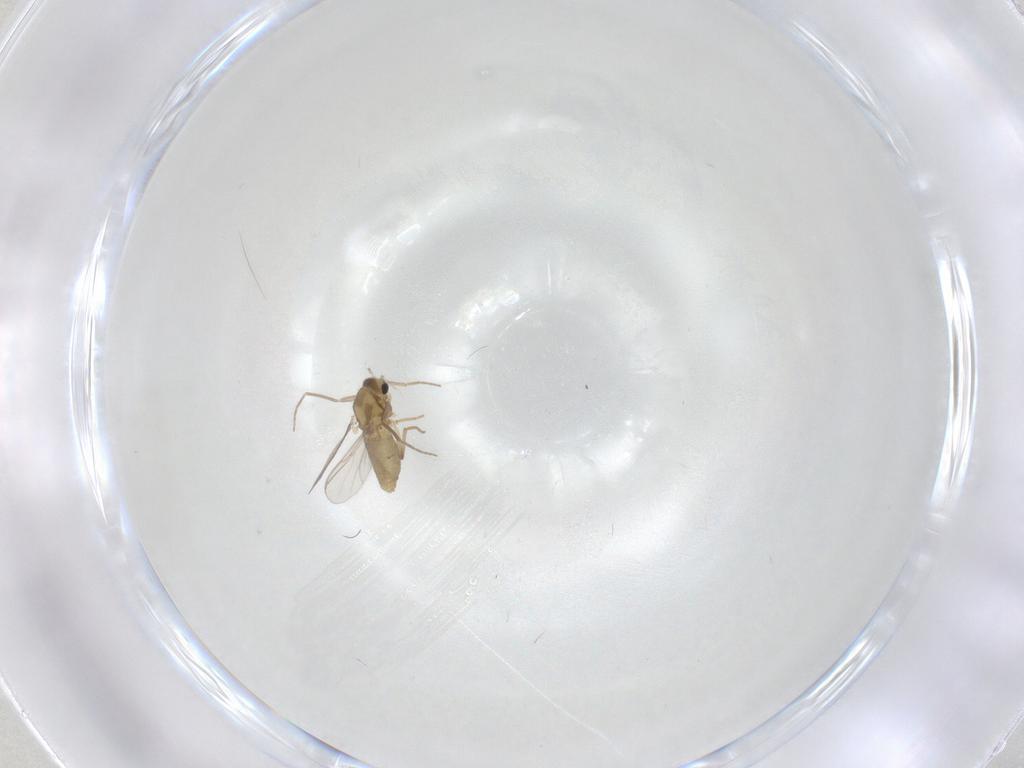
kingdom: Animalia
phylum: Arthropoda
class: Insecta
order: Diptera
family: Chironomidae
